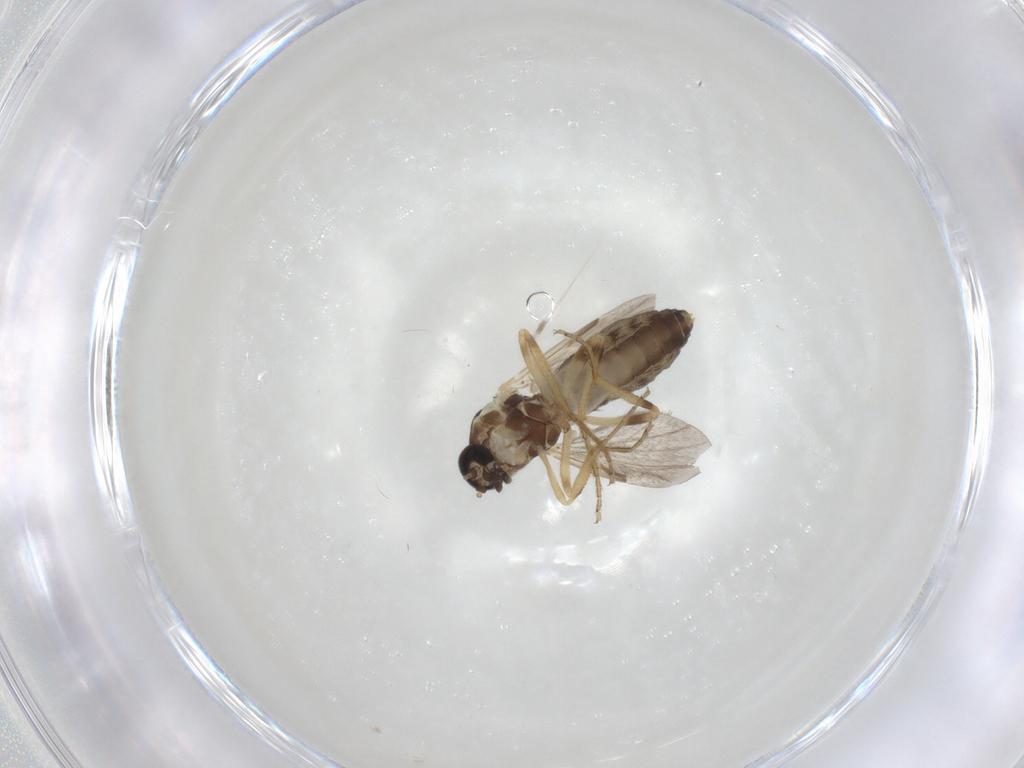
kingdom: Animalia
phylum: Arthropoda
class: Insecta
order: Diptera
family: Ceratopogonidae
